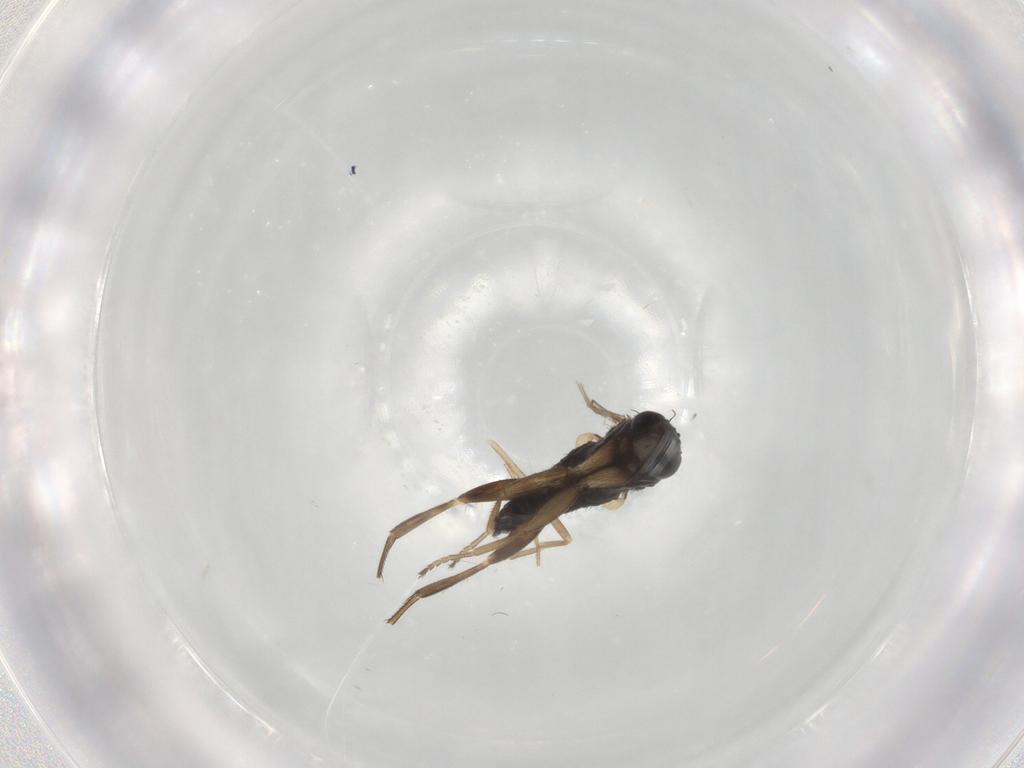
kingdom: Animalia
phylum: Arthropoda
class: Insecta
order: Diptera
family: Phoridae
